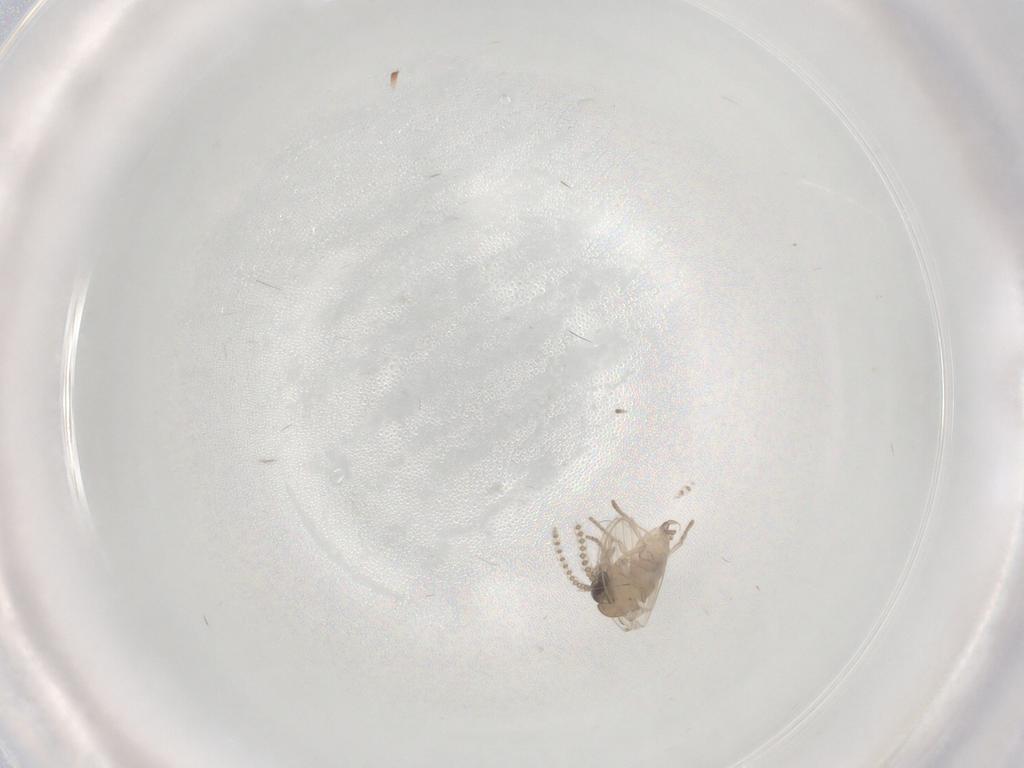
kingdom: Animalia
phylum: Arthropoda
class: Insecta
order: Diptera
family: Psychodidae
